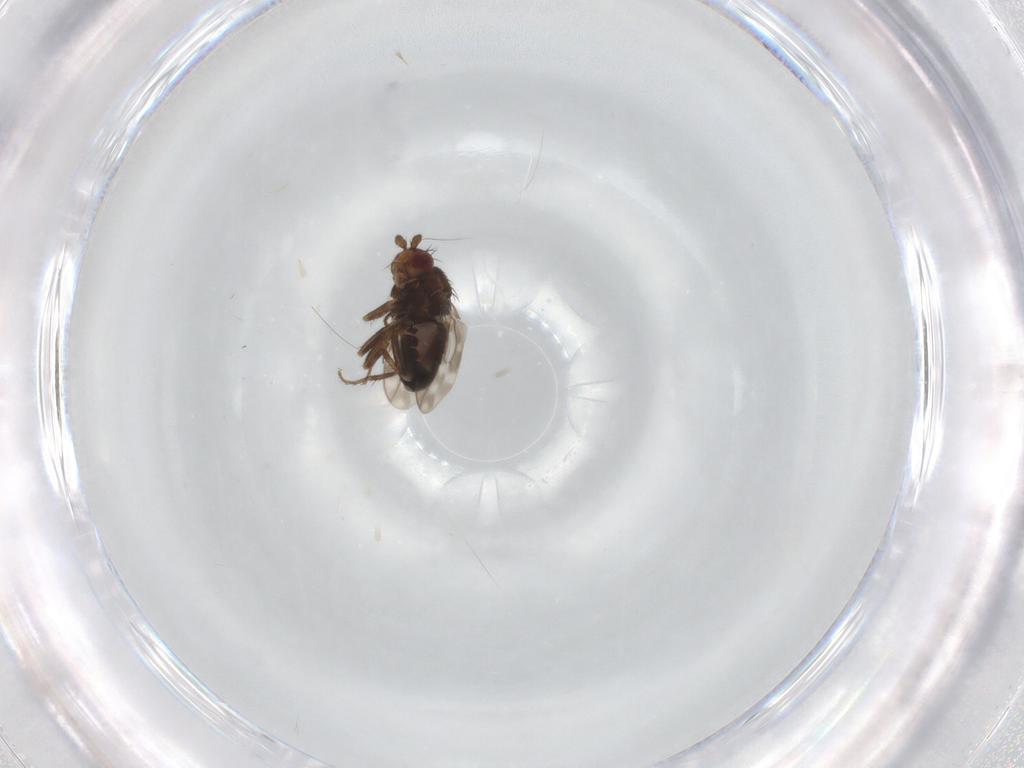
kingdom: Animalia
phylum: Arthropoda
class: Insecta
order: Diptera
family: Sphaeroceridae
